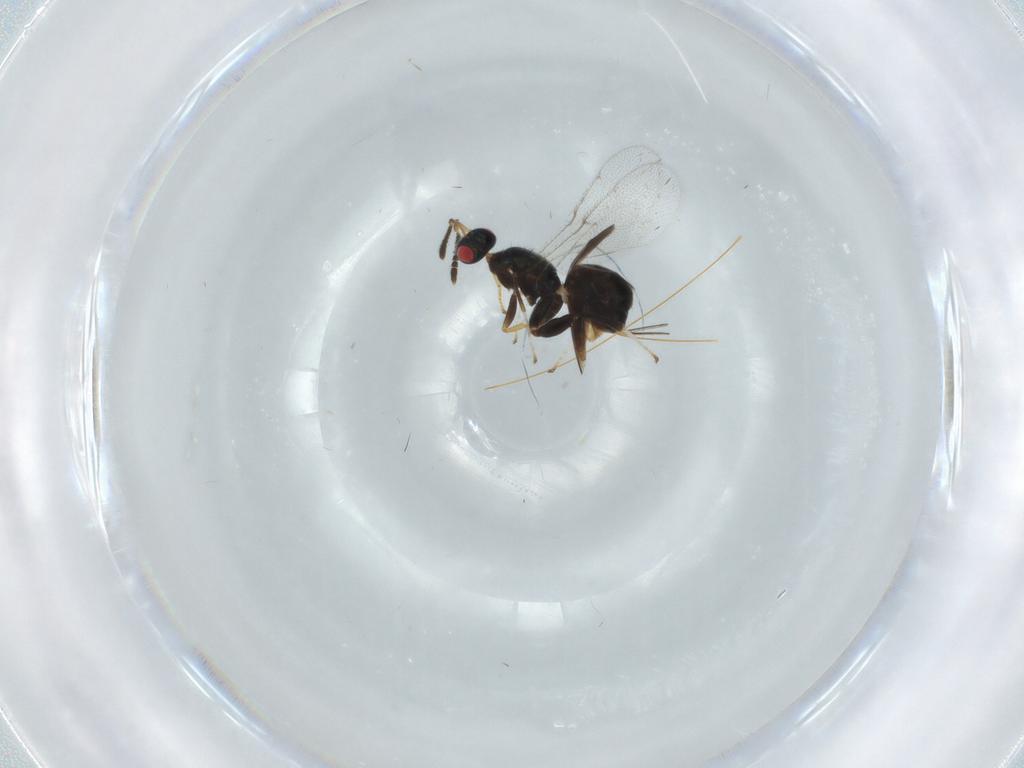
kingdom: Animalia
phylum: Arthropoda
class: Insecta
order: Hymenoptera
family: Torymidae
